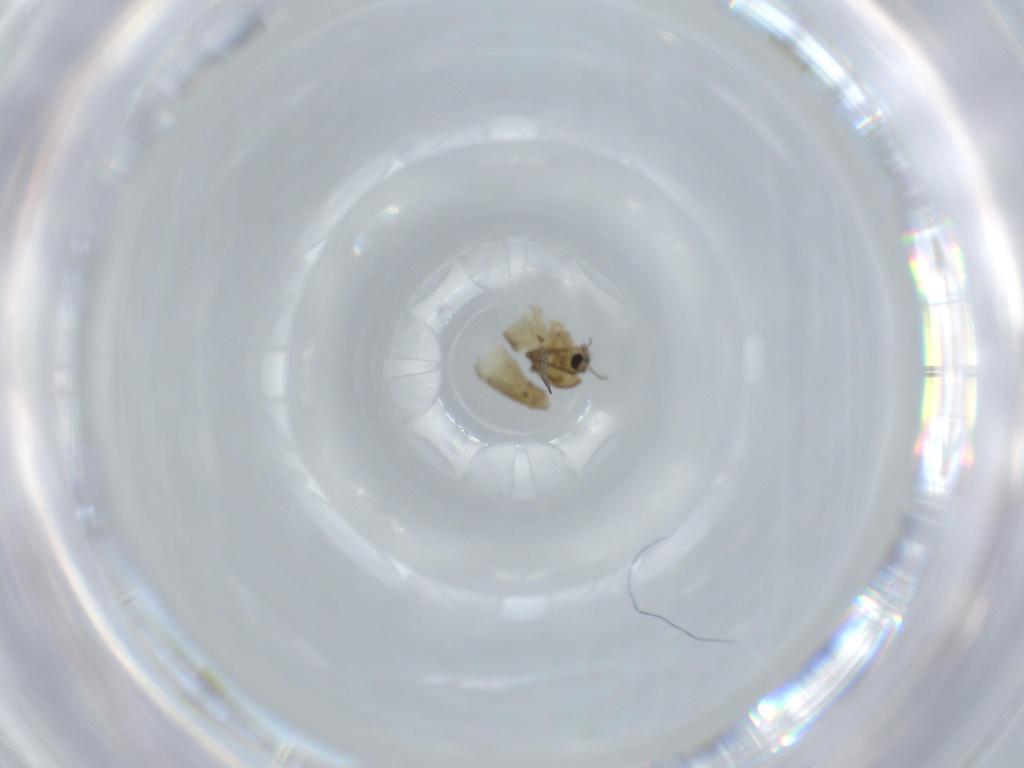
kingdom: Animalia
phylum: Arthropoda
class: Insecta
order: Diptera
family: Chironomidae
